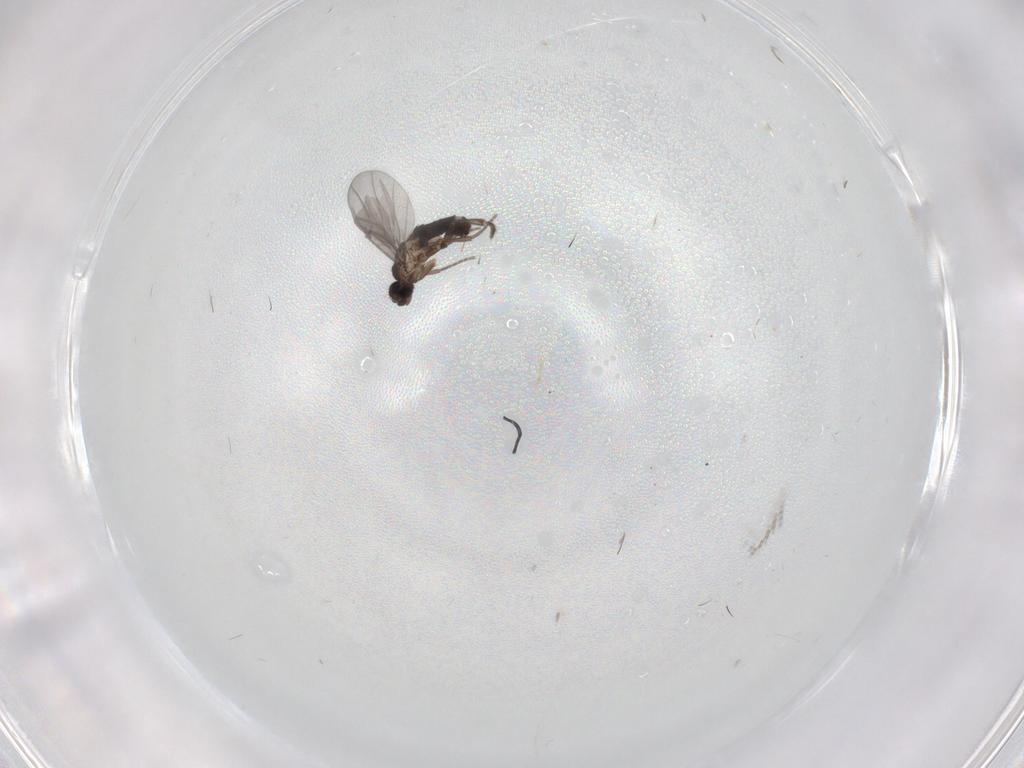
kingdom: Animalia
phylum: Arthropoda
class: Insecta
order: Diptera
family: Phoridae
